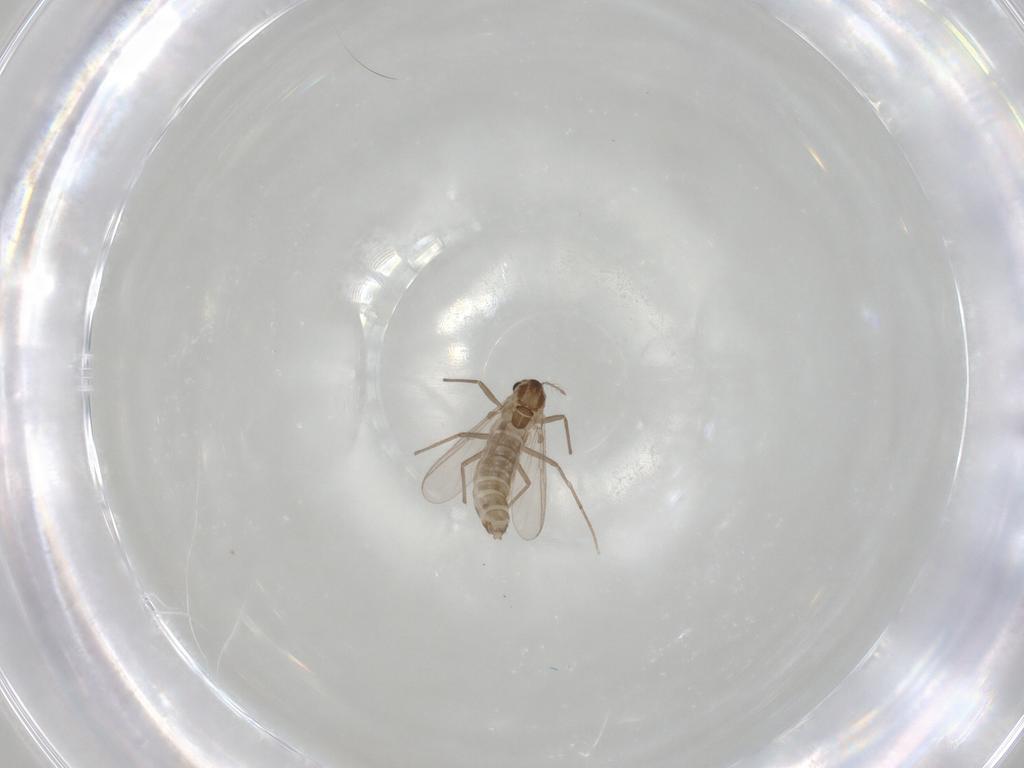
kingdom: Animalia
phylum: Arthropoda
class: Insecta
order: Diptera
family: Chironomidae
